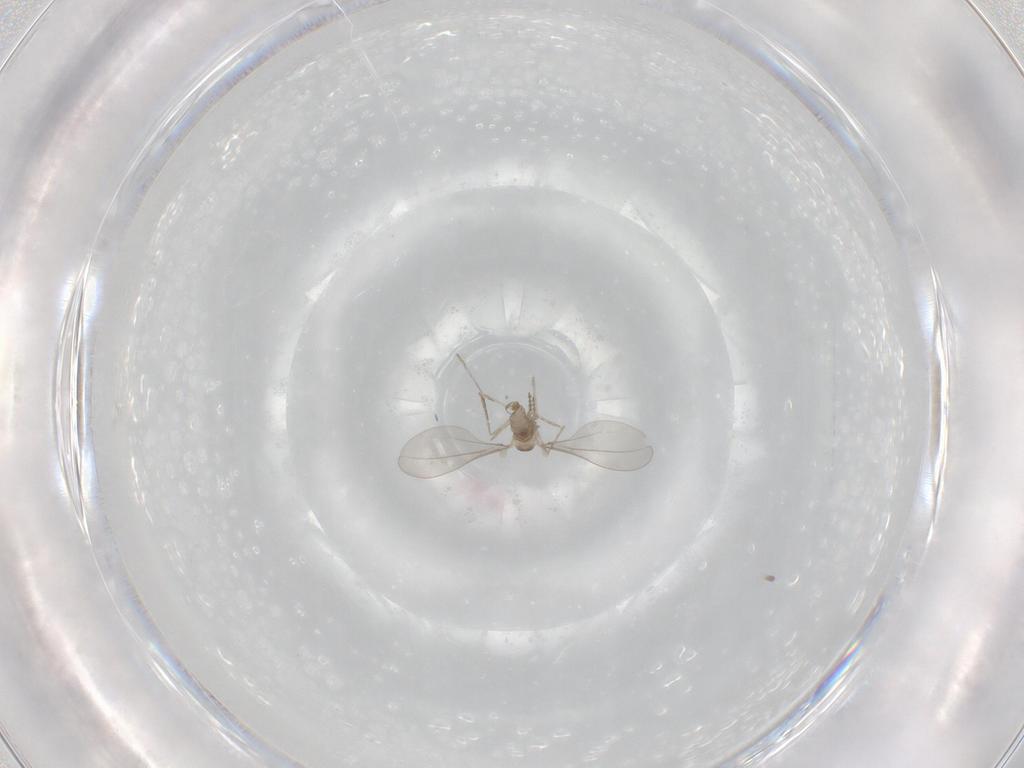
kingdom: Animalia
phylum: Arthropoda
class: Insecta
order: Diptera
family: Cecidomyiidae
